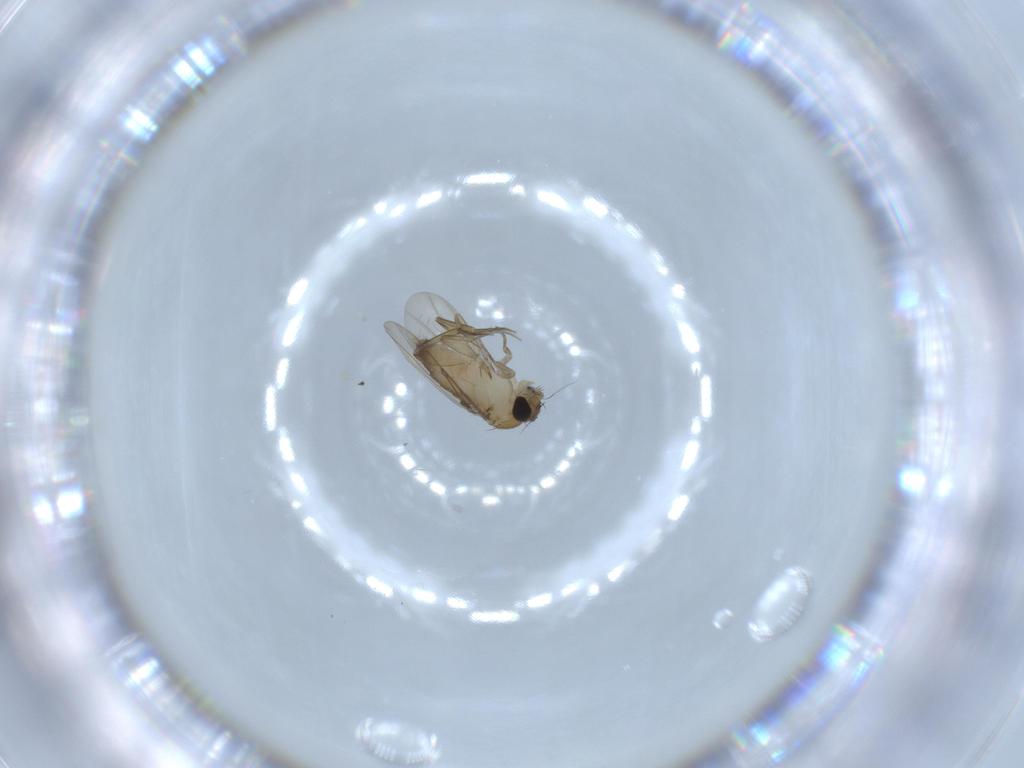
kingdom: Animalia
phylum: Arthropoda
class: Insecta
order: Diptera
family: Phoridae
